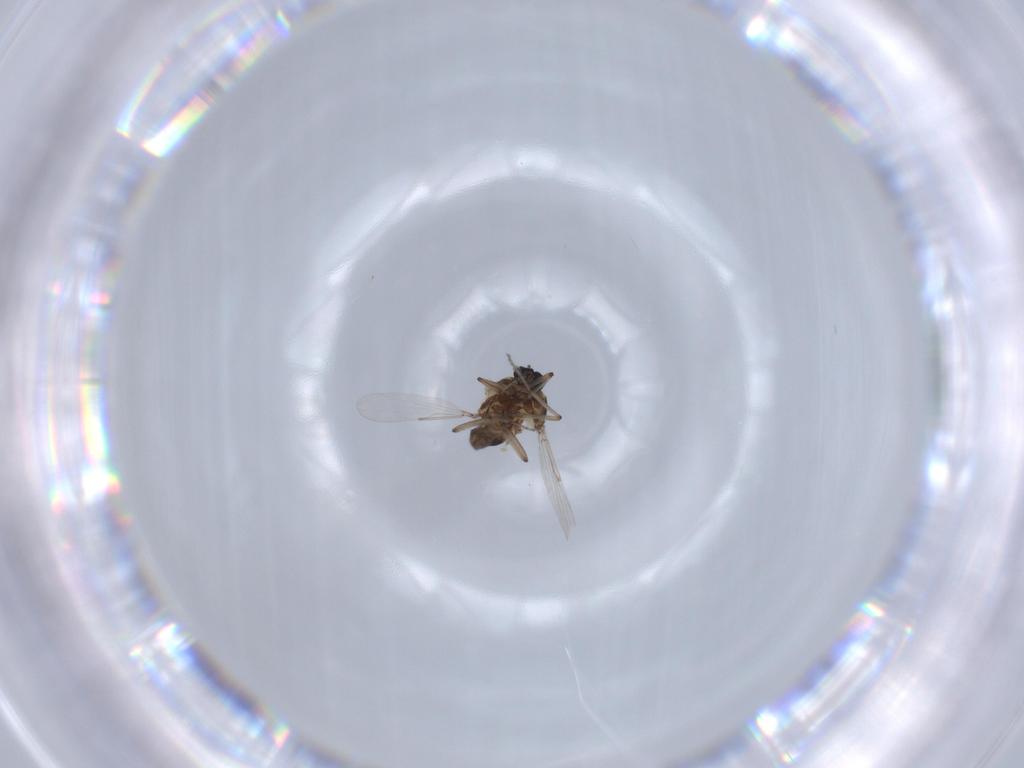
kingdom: Animalia
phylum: Arthropoda
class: Insecta
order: Diptera
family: Ceratopogonidae
